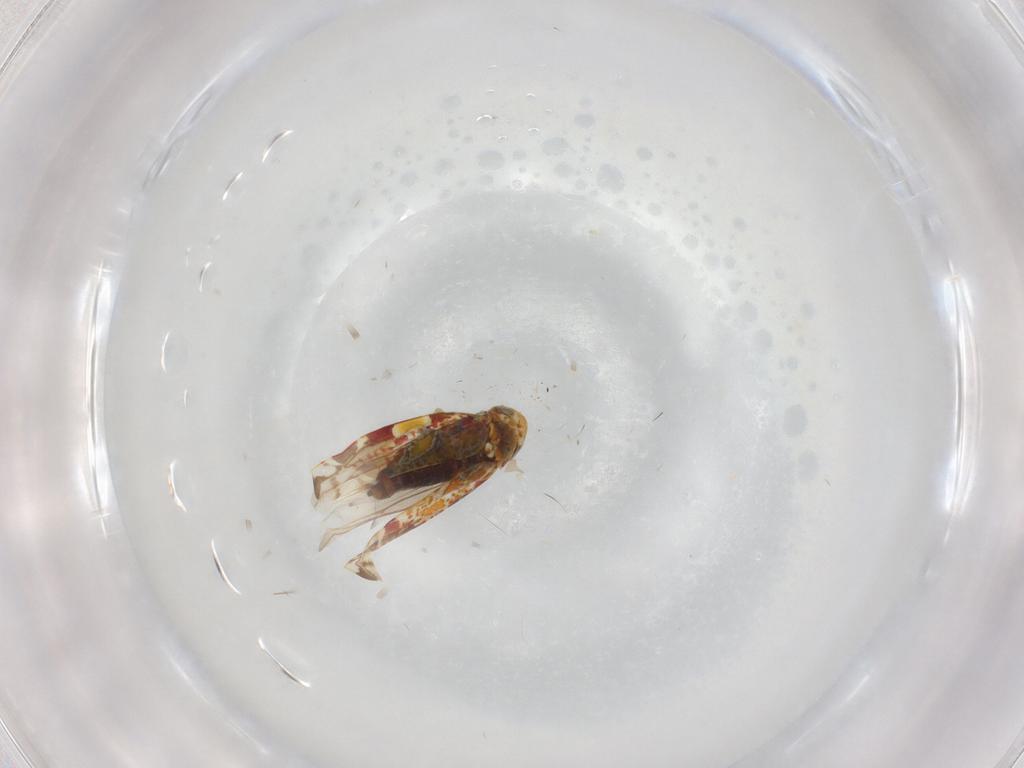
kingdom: Animalia
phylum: Arthropoda
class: Insecta
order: Hemiptera
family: Cicadellidae
